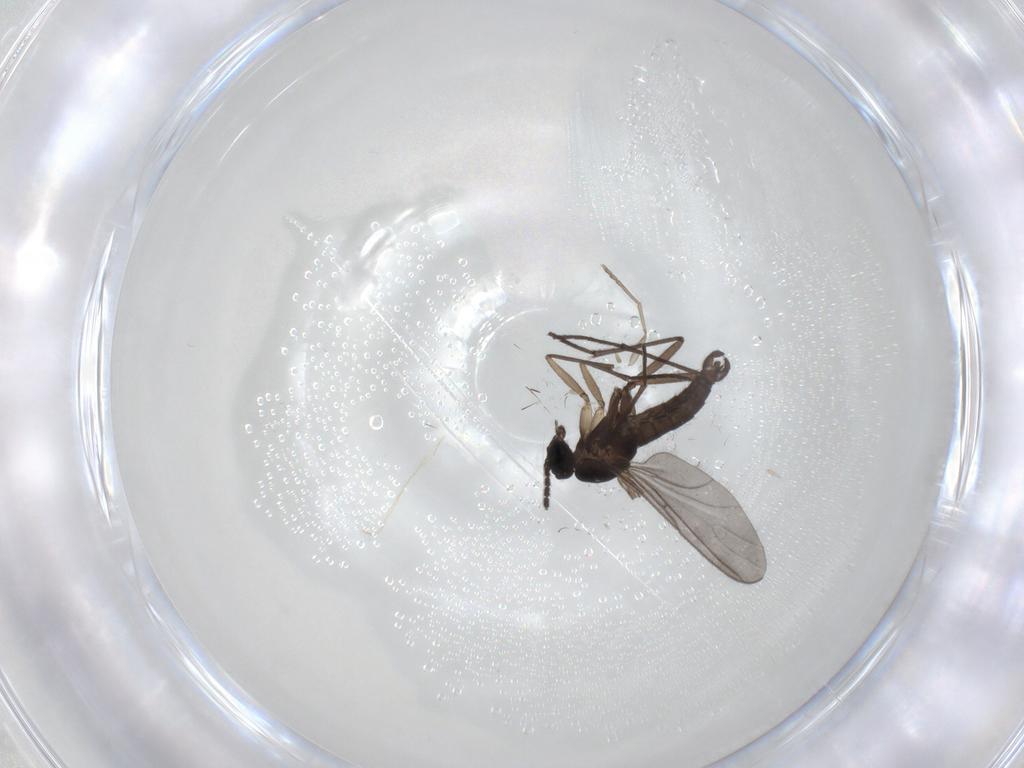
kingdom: Animalia
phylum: Arthropoda
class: Insecta
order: Diptera
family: Sciaridae
